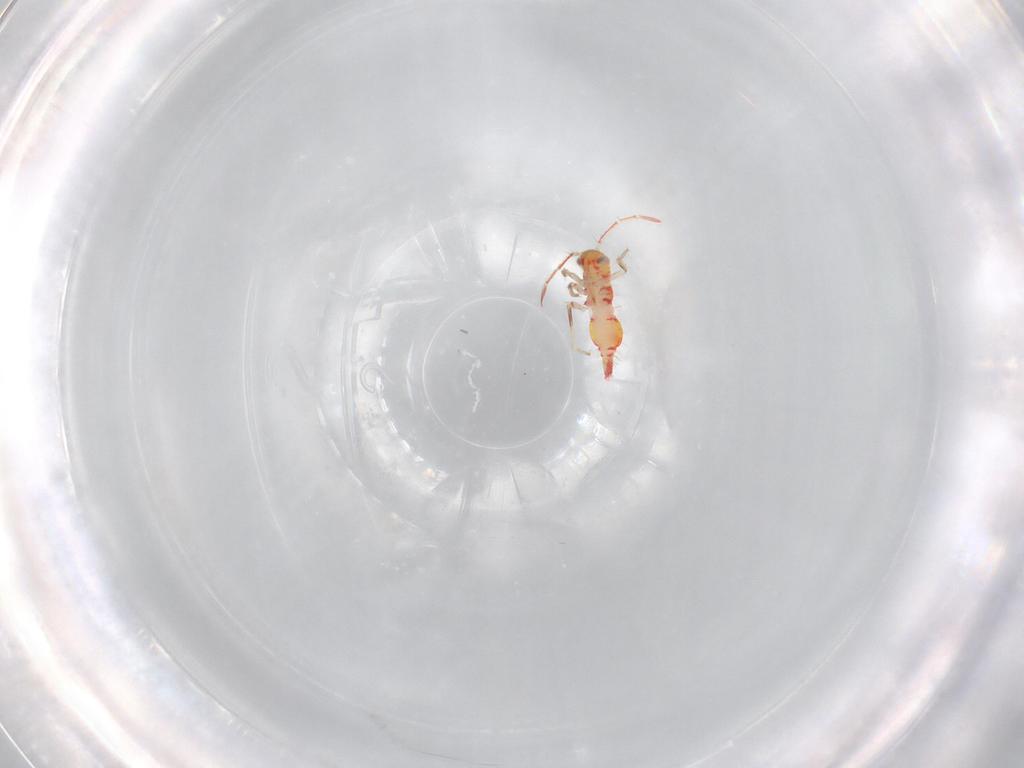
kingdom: Animalia
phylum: Arthropoda
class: Insecta
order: Hemiptera
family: Miridae
